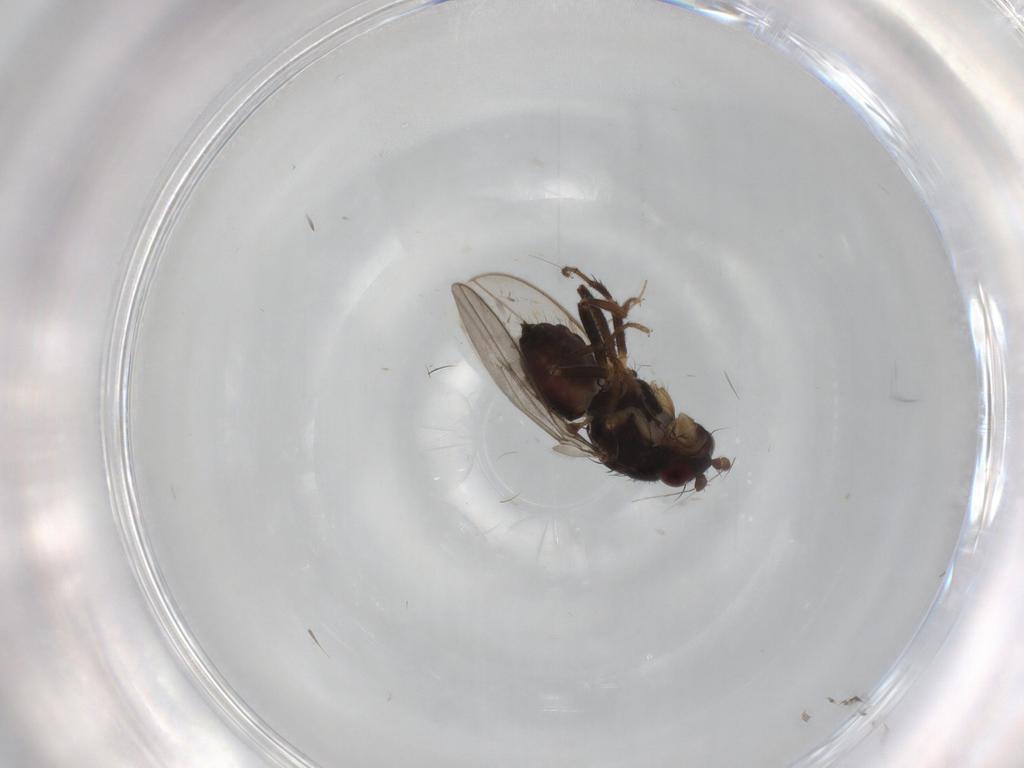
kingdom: Animalia
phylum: Arthropoda
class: Insecta
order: Diptera
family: Sphaeroceridae
